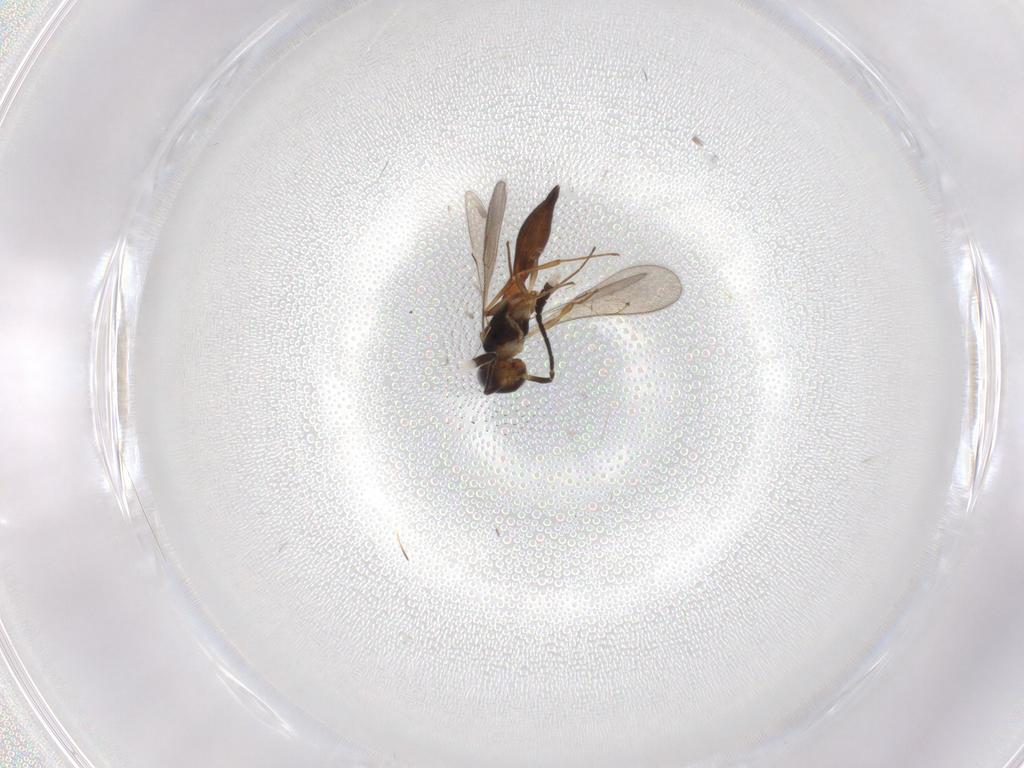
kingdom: Animalia
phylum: Arthropoda
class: Insecta
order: Hymenoptera
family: Scelionidae
